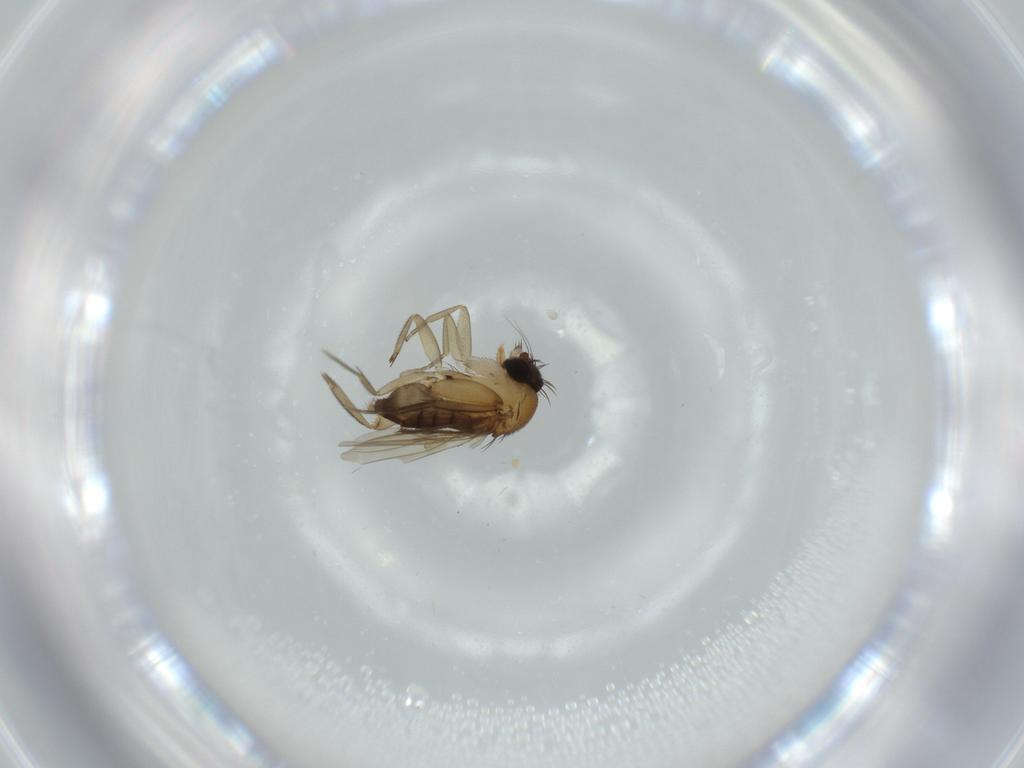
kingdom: Animalia
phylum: Arthropoda
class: Insecta
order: Diptera
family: Phoridae
